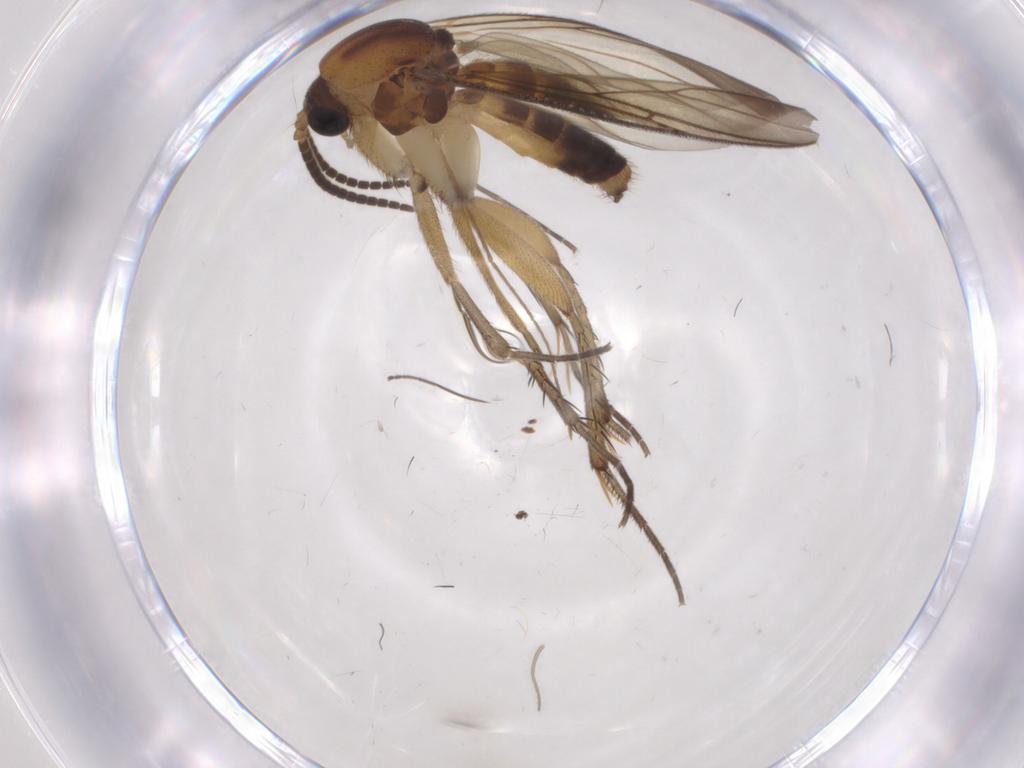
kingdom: Animalia
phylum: Arthropoda
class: Insecta
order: Diptera
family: Mycetophilidae
